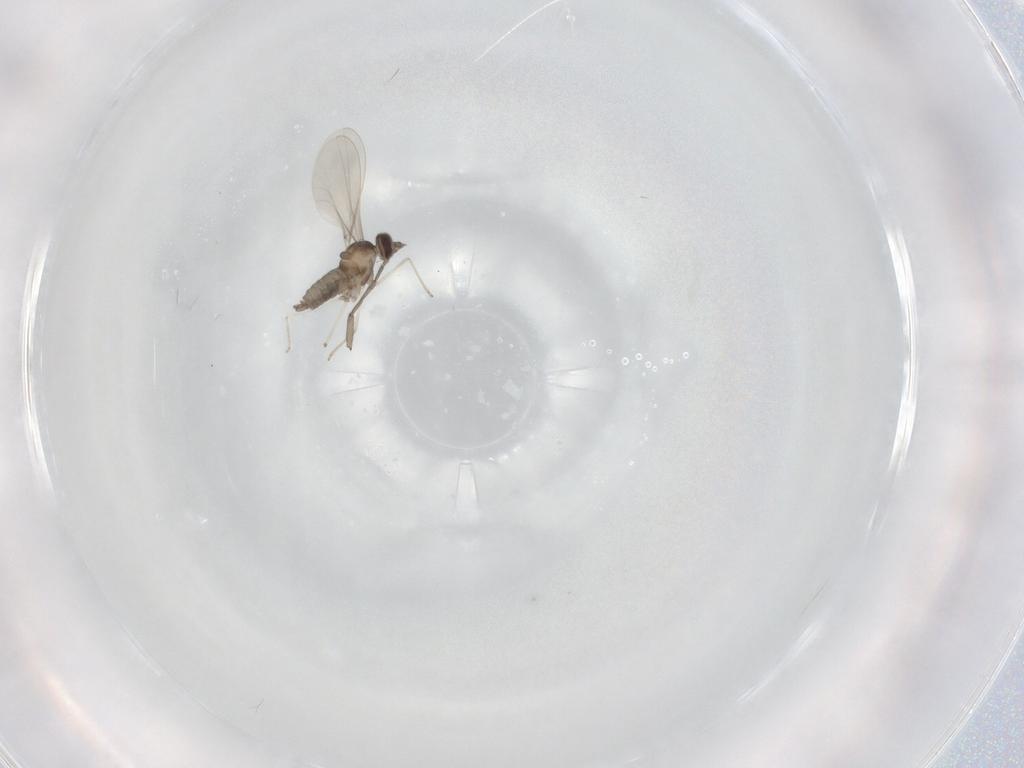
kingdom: Animalia
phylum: Arthropoda
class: Insecta
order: Diptera
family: Sciaridae
